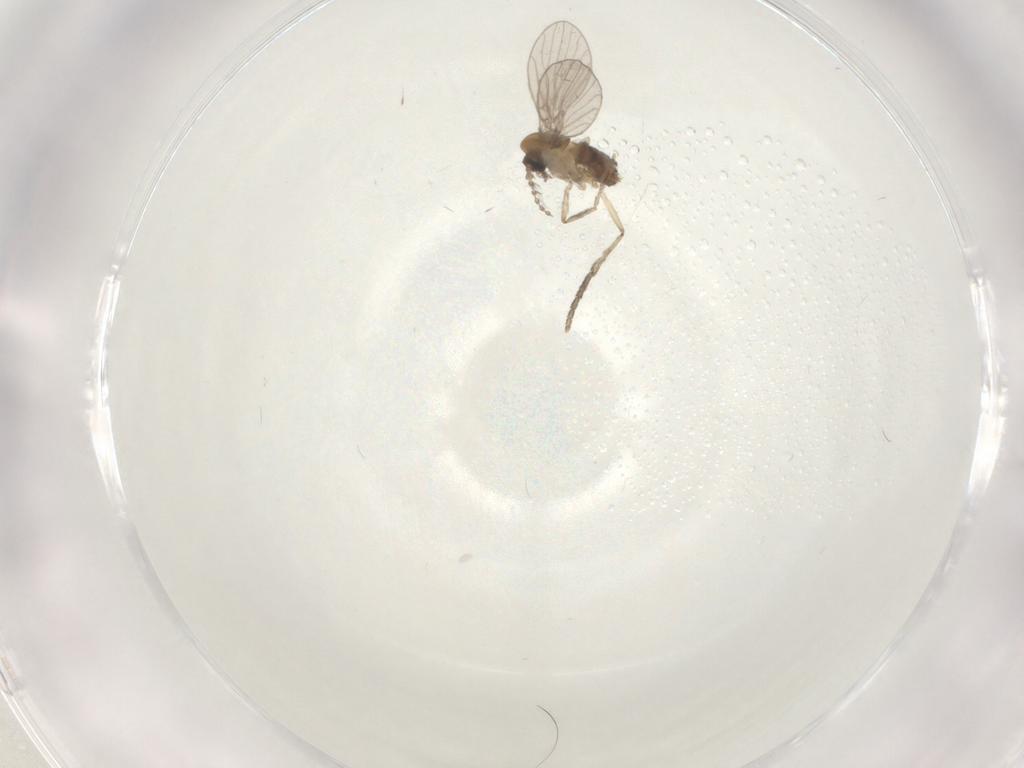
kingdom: Animalia
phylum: Arthropoda
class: Insecta
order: Diptera
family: Psychodidae
